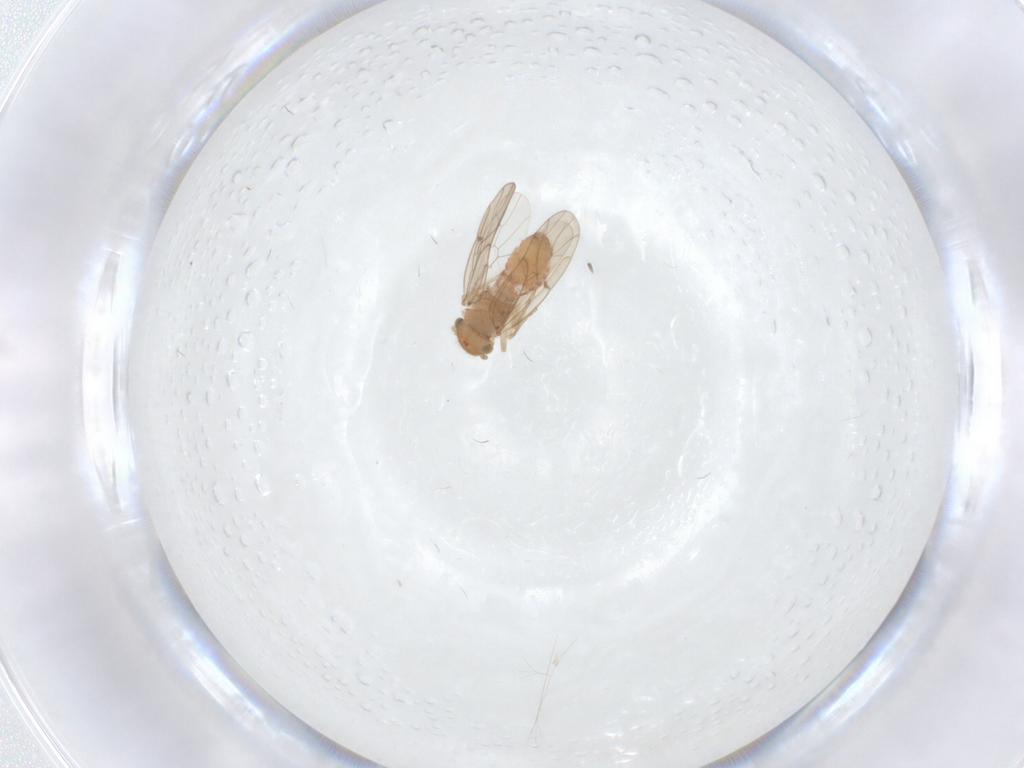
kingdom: Animalia
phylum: Arthropoda
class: Insecta
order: Psocodea
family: Ectopsocidae
